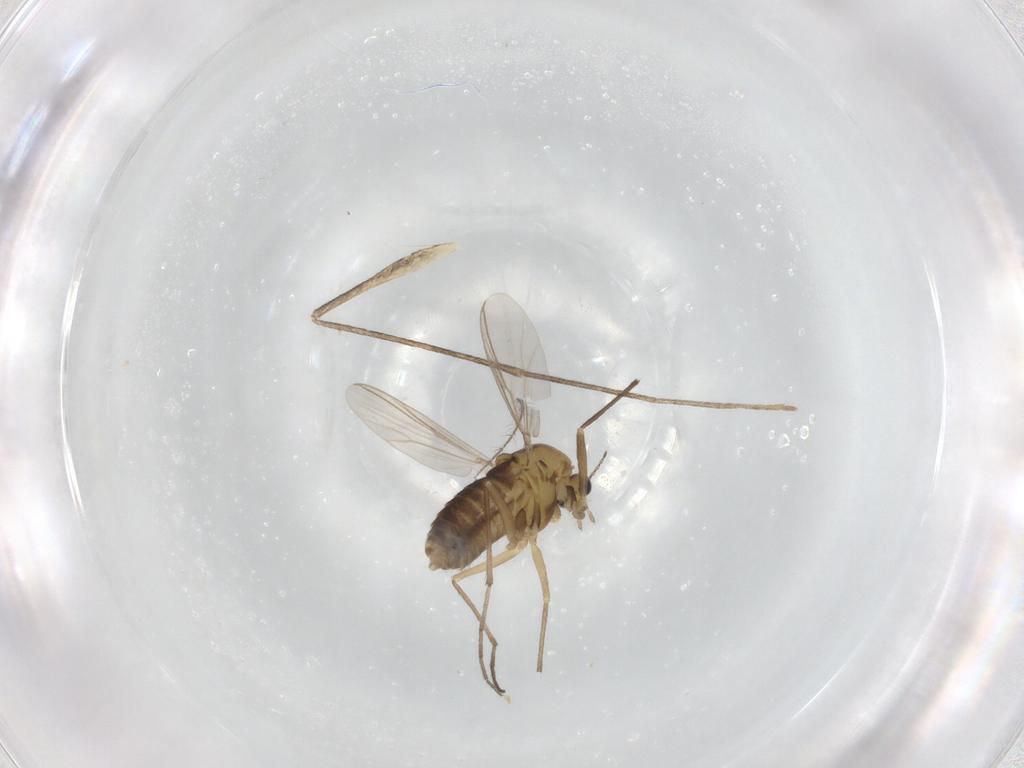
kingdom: Animalia
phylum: Arthropoda
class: Insecta
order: Diptera
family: Chironomidae
